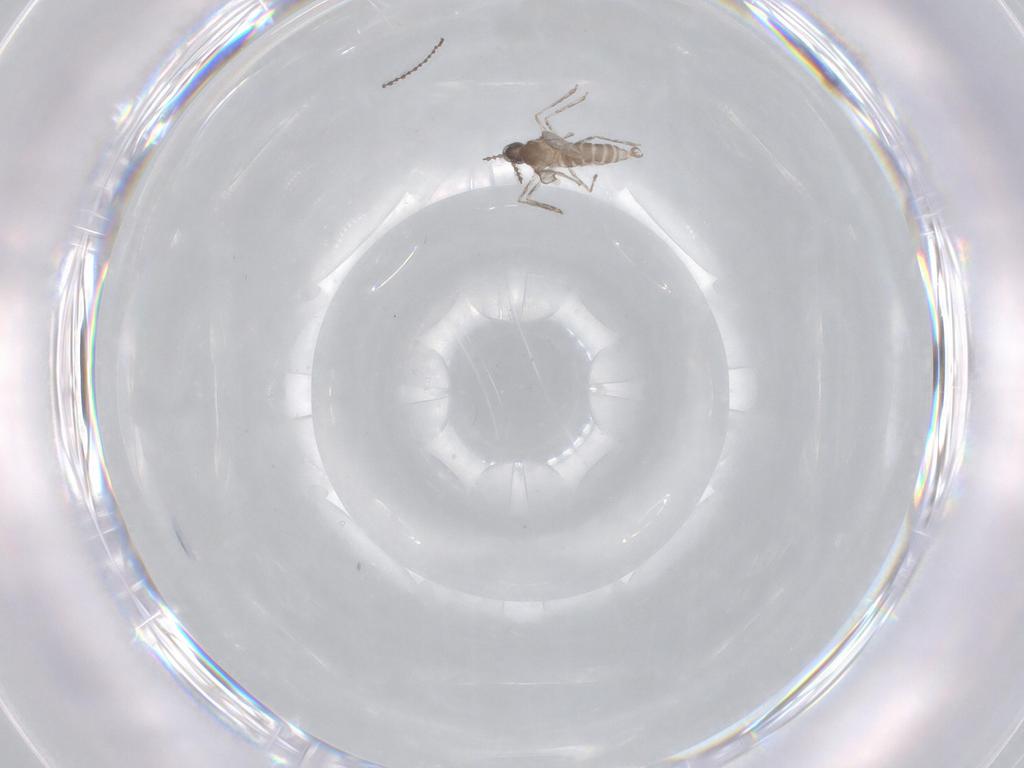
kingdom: Animalia
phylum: Arthropoda
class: Insecta
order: Diptera
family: Cecidomyiidae
